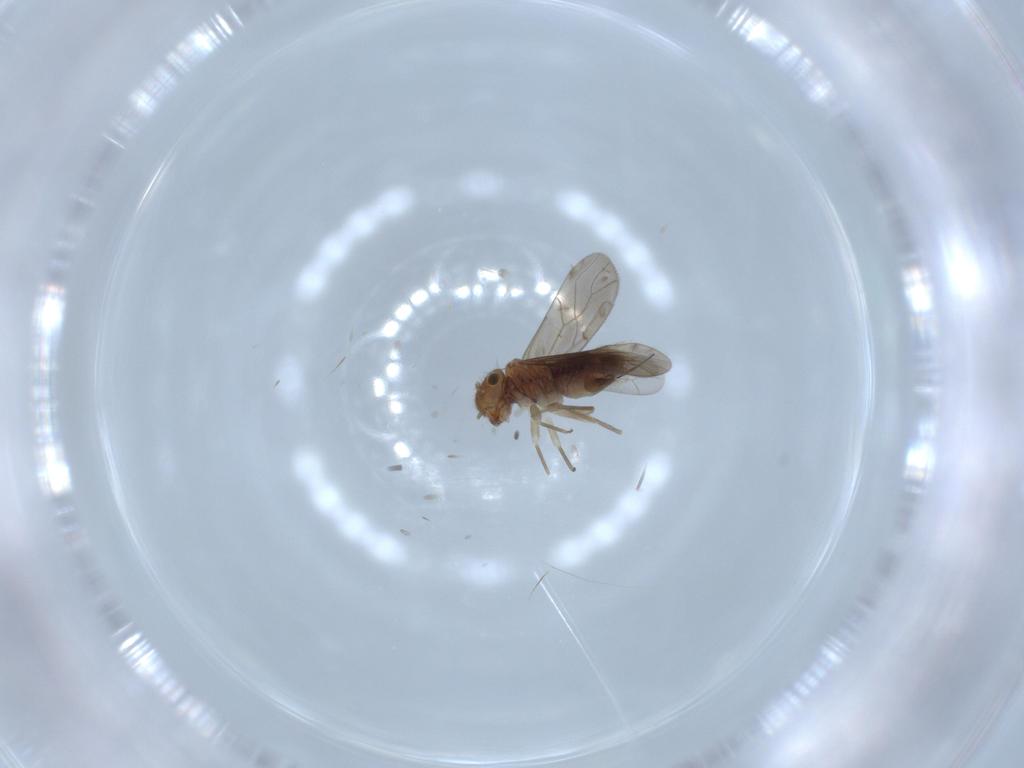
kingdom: Animalia
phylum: Arthropoda
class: Insecta
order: Psocodea
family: Ectopsocidae
